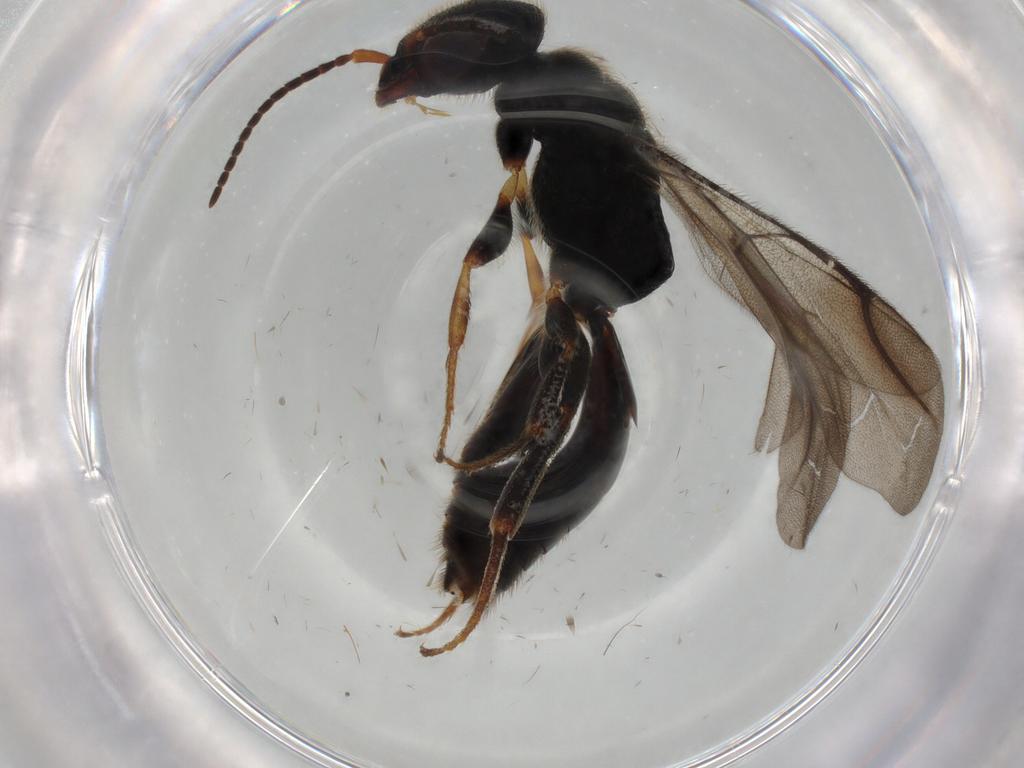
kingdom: Animalia
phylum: Arthropoda
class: Insecta
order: Hymenoptera
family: Bethylidae
